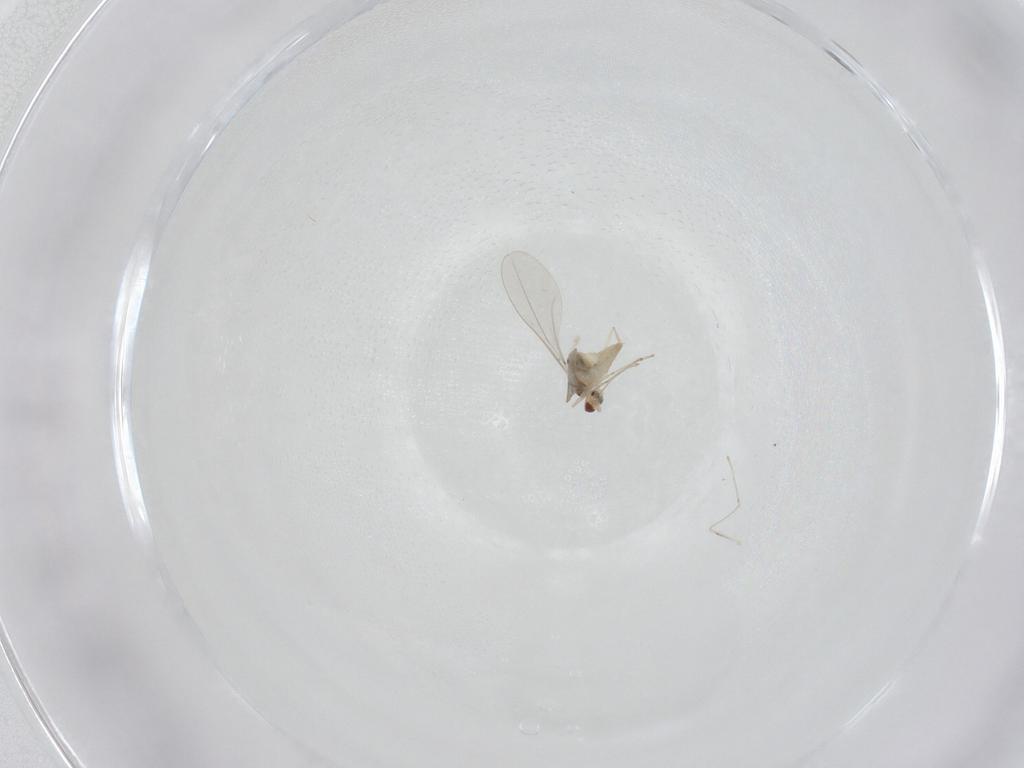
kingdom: Animalia
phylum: Arthropoda
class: Insecta
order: Diptera
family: Cecidomyiidae
